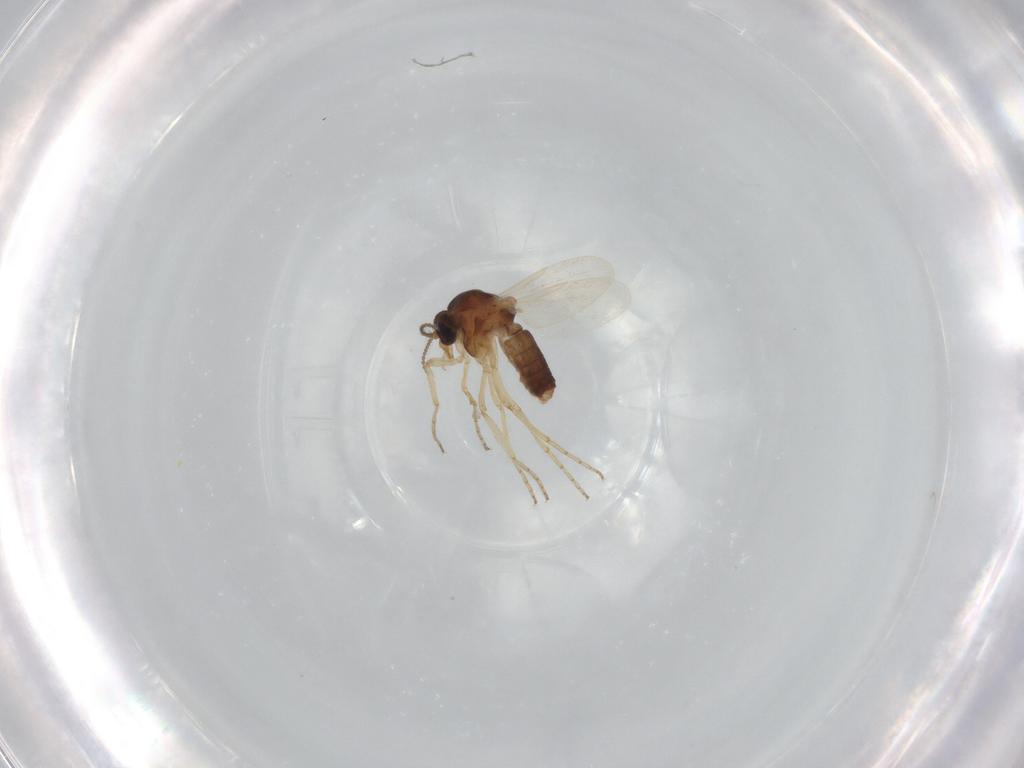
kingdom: Animalia
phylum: Arthropoda
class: Insecta
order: Diptera
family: Ceratopogonidae
